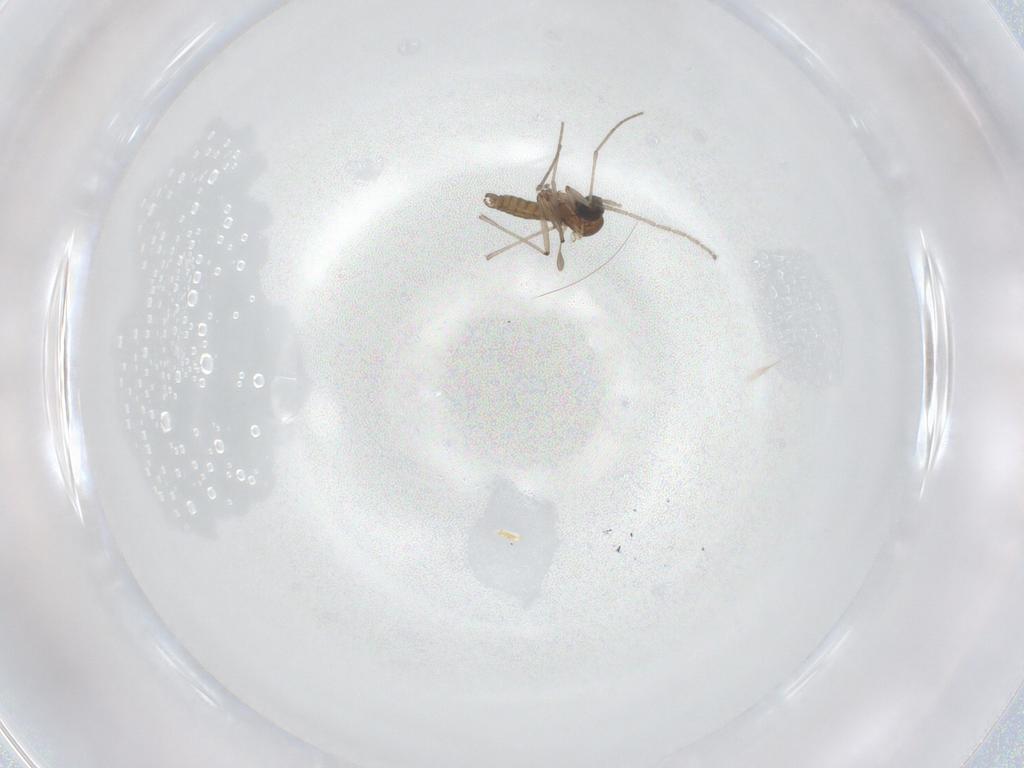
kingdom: Animalia
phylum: Arthropoda
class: Insecta
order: Diptera
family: Sciaridae
